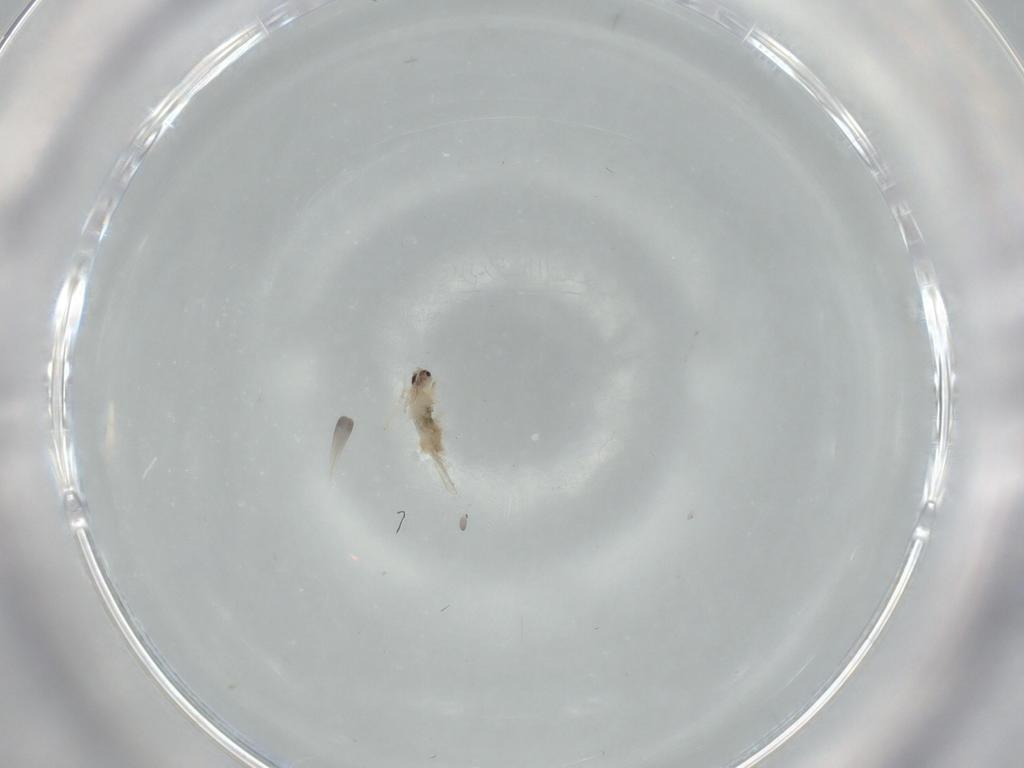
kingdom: Animalia
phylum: Arthropoda
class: Insecta
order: Diptera
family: Cecidomyiidae
